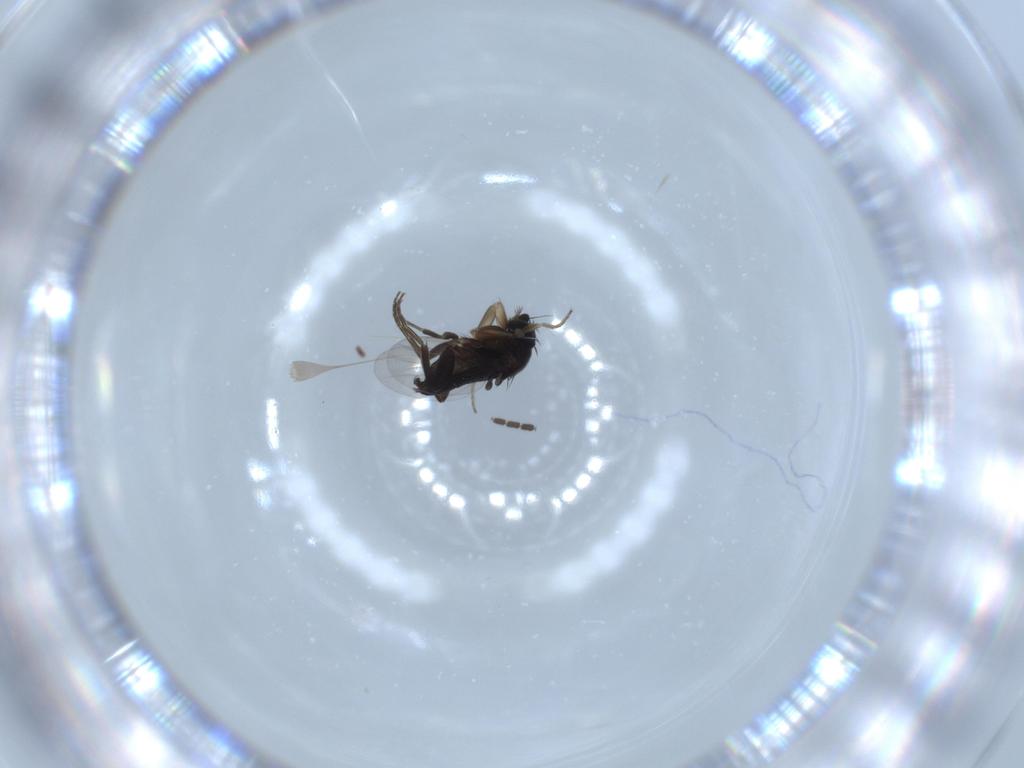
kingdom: Animalia
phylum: Arthropoda
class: Insecta
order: Diptera
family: Sciaridae
